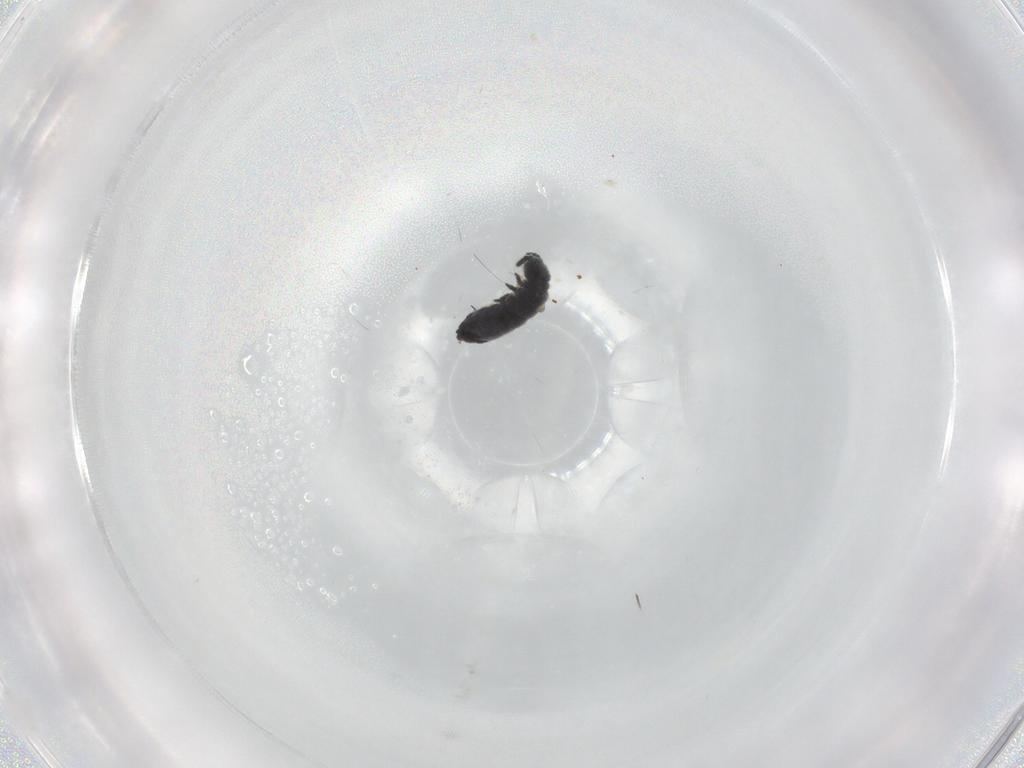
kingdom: Animalia
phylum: Arthropoda
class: Collembola
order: Poduromorpha
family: Hypogastruridae
